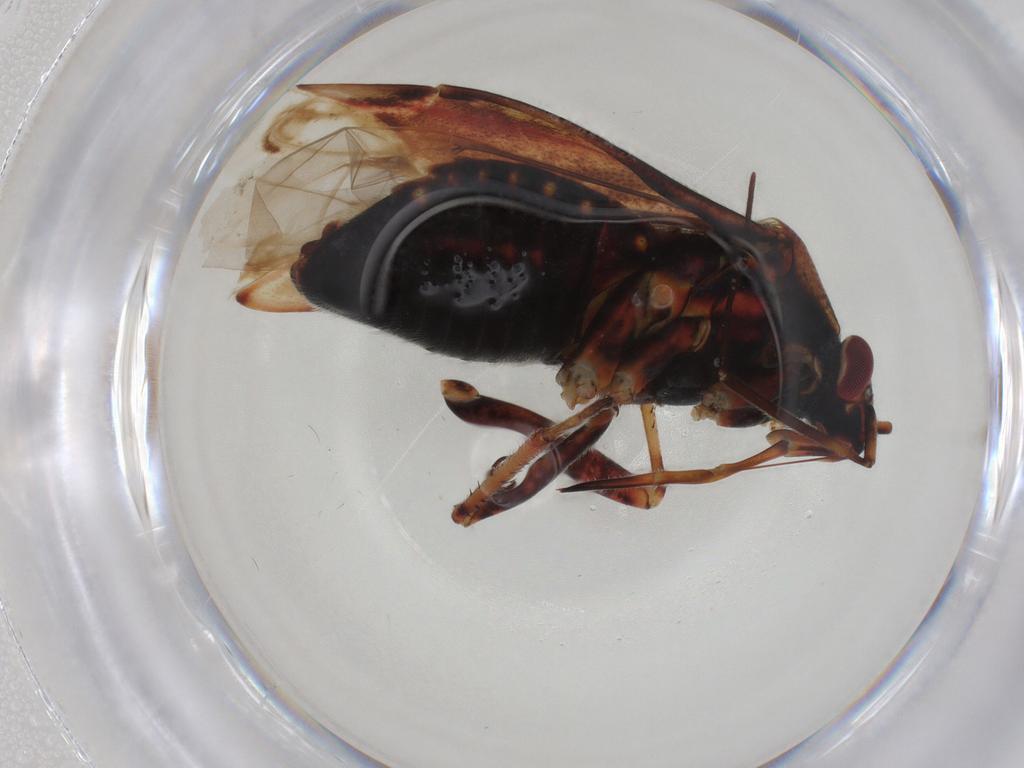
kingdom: Animalia
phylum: Arthropoda
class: Insecta
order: Hemiptera
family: Miridae
